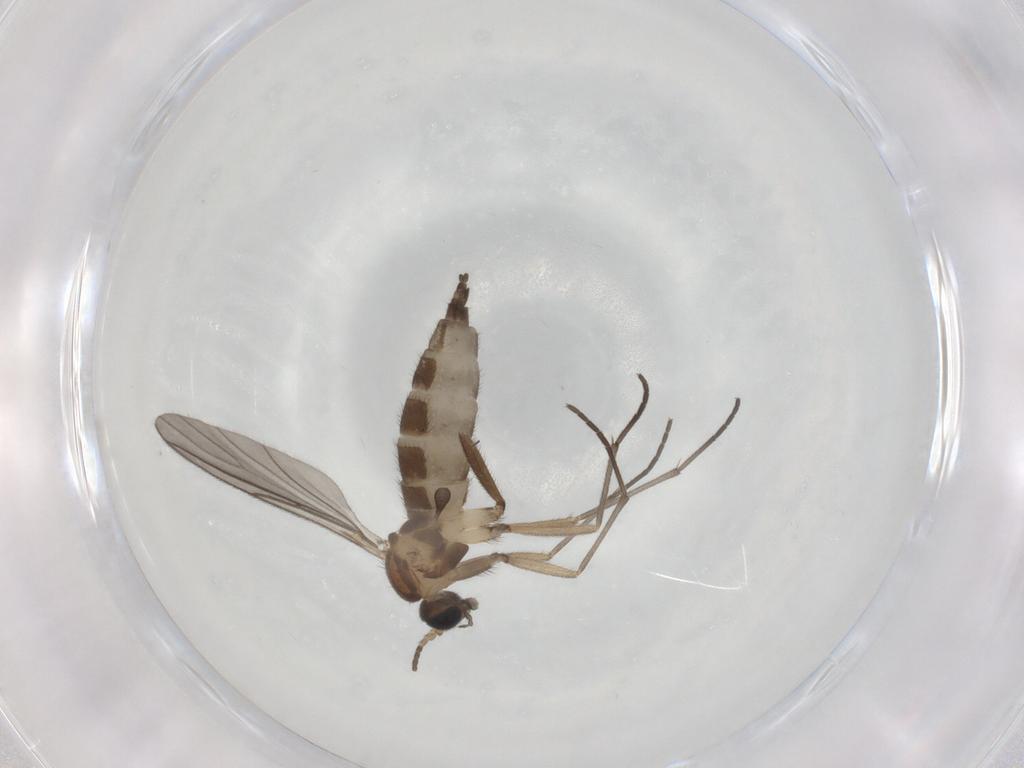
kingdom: Animalia
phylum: Arthropoda
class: Insecta
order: Diptera
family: Sciaridae
